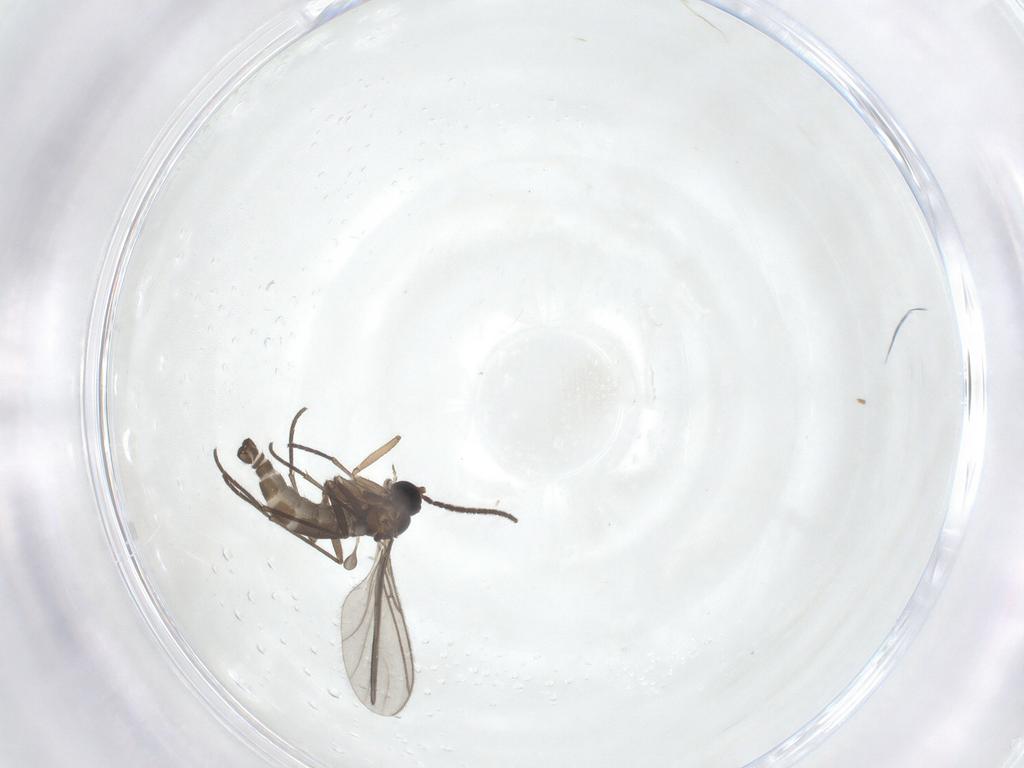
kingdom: Animalia
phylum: Arthropoda
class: Insecta
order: Diptera
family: Sciaridae
